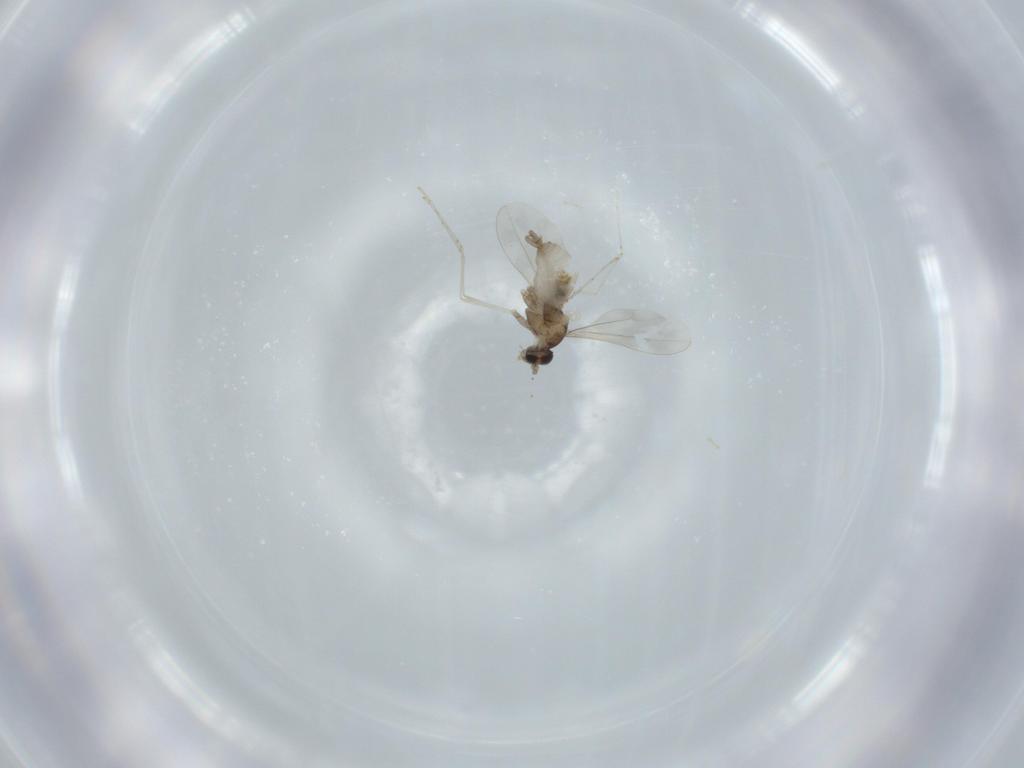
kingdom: Animalia
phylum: Arthropoda
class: Insecta
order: Diptera
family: Cecidomyiidae
